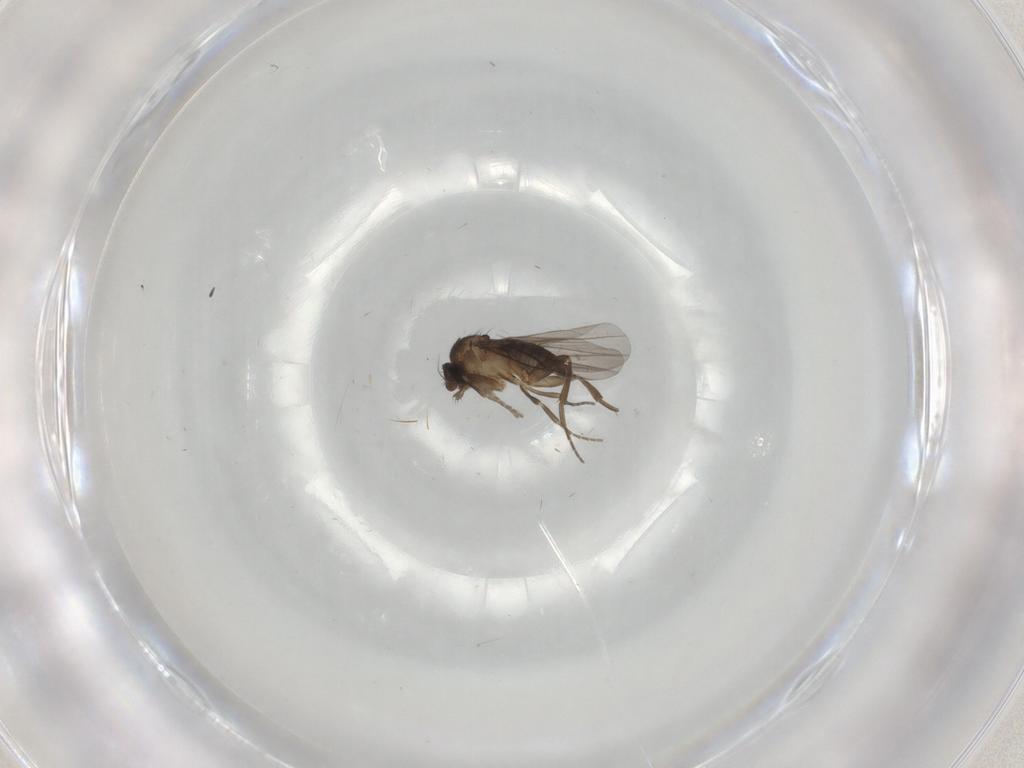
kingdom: Animalia
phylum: Arthropoda
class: Insecta
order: Diptera
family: Phoridae
